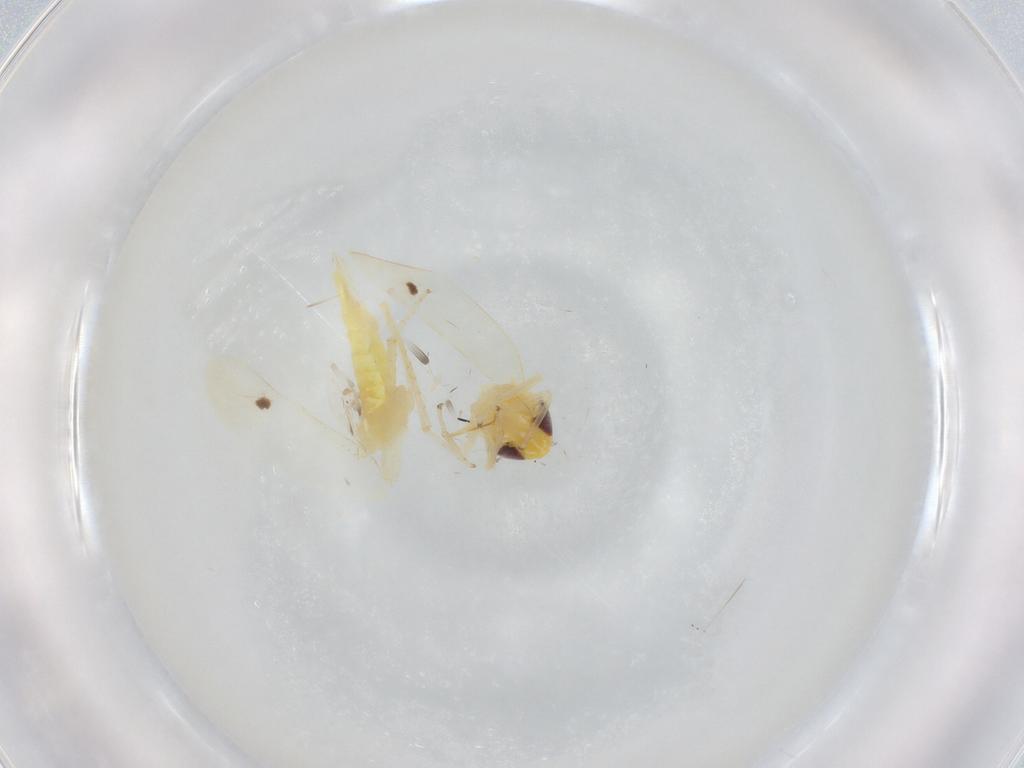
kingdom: Animalia
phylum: Arthropoda
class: Insecta
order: Hemiptera
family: Cicadellidae
